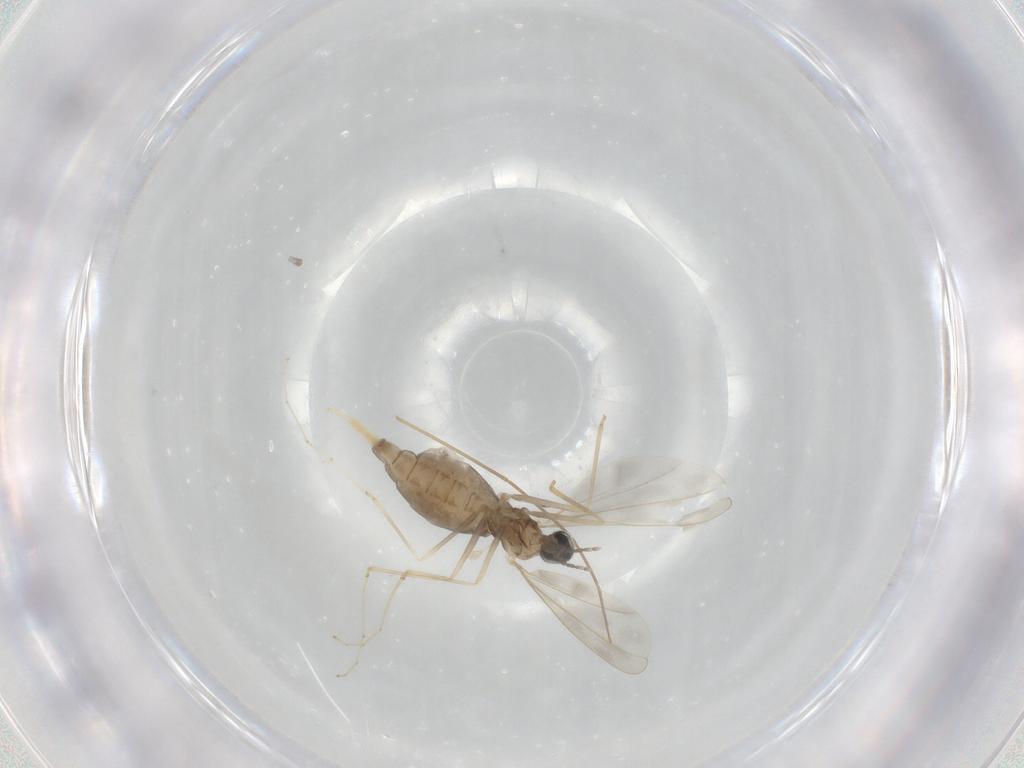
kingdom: Animalia
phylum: Arthropoda
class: Insecta
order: Diptera
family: Cecidomyiidae
